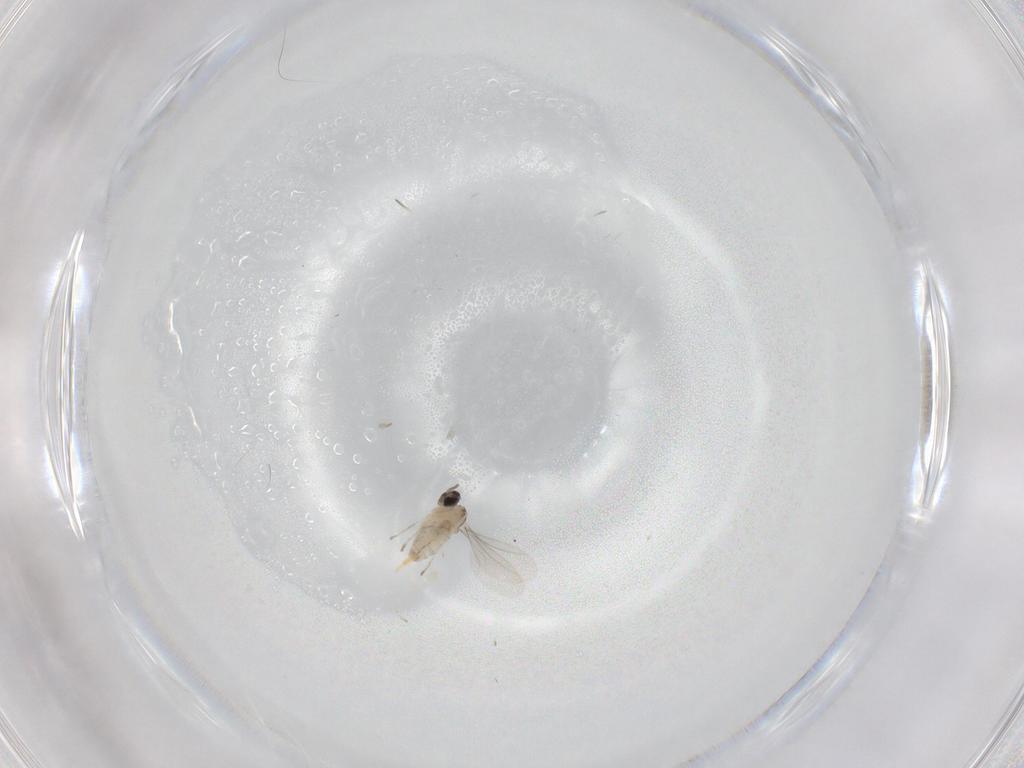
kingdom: Animalia
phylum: Arthropoda
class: Insecta
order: Diptera
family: Cecidomyiidae
